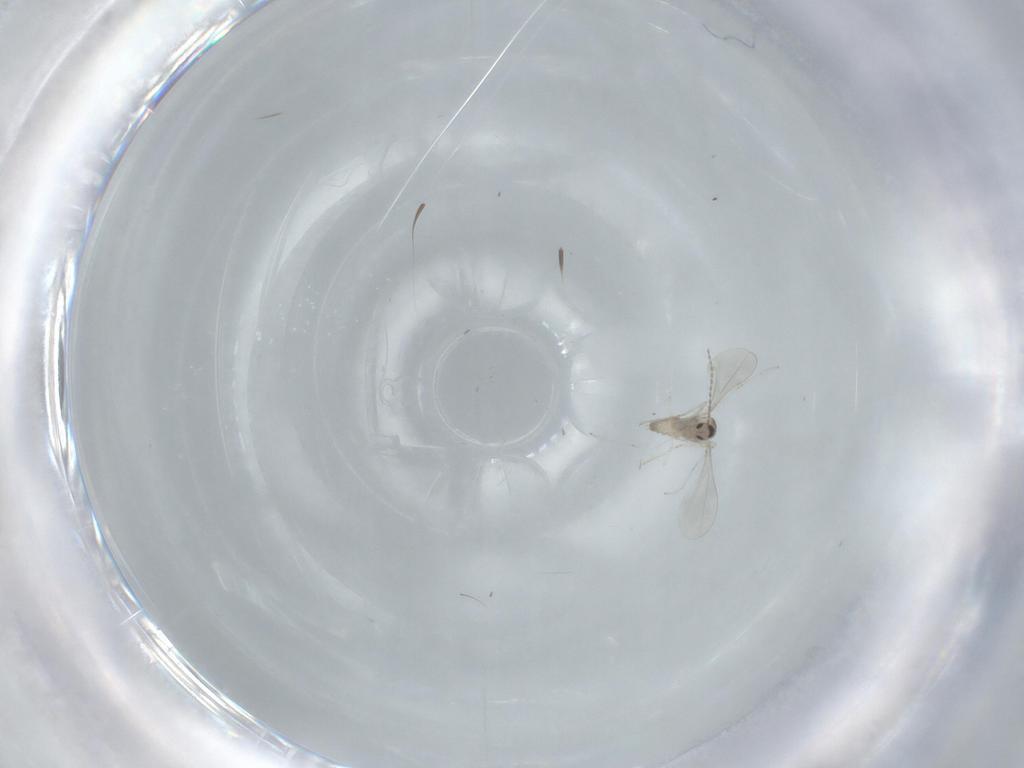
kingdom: Animalia
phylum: Arthropoda
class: Insecta
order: Diptera
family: Cecidomyiidae
